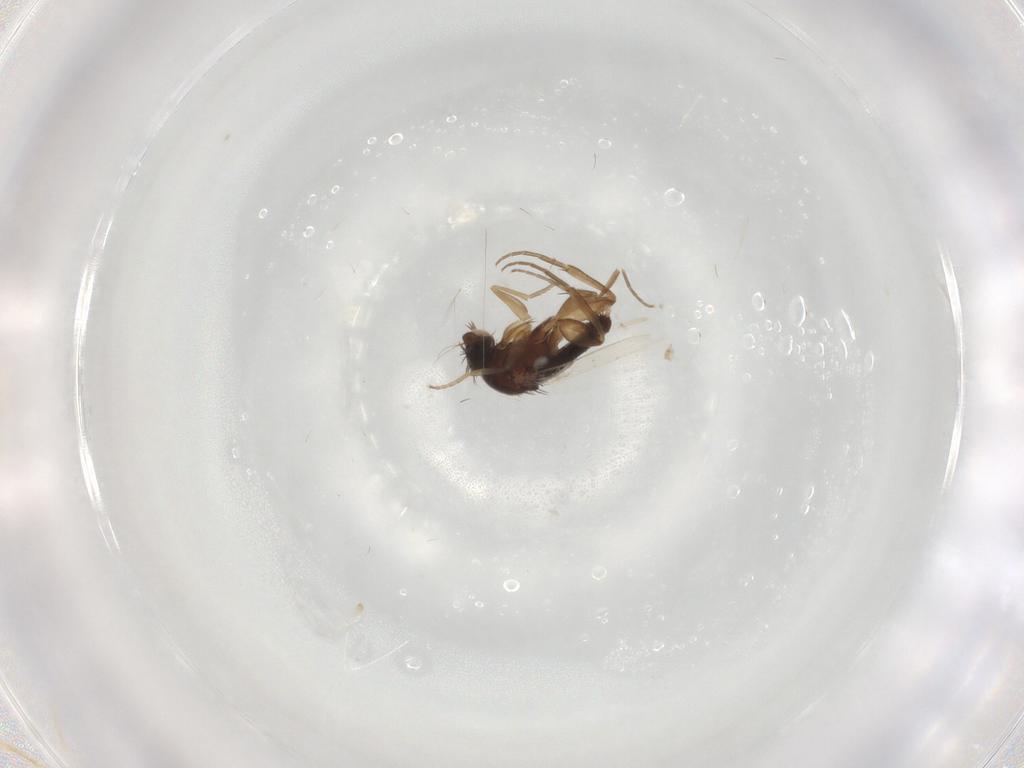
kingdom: Animalia
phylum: Arthropoda
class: Insecta
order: Diptera
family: Phoridae
